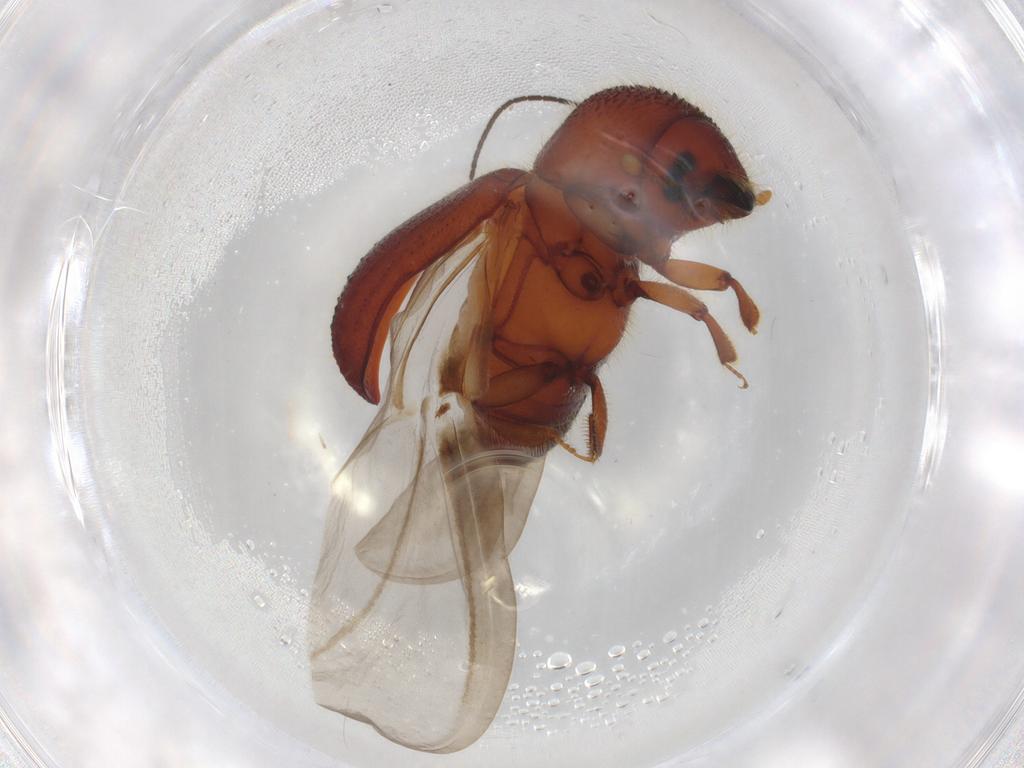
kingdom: Animalia
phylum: Arthropoda
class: Insecta
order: Coleoptera
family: Curculionidae
